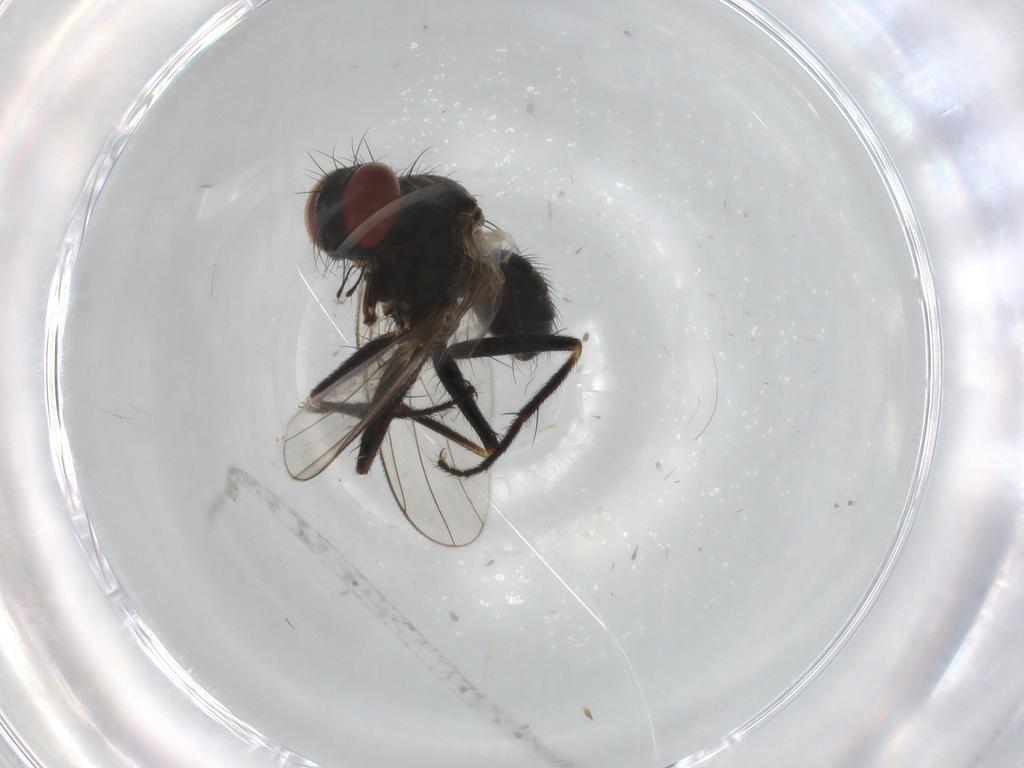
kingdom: Animalia
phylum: Arthropoda
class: Insecta
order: Diptera
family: Muscidae
